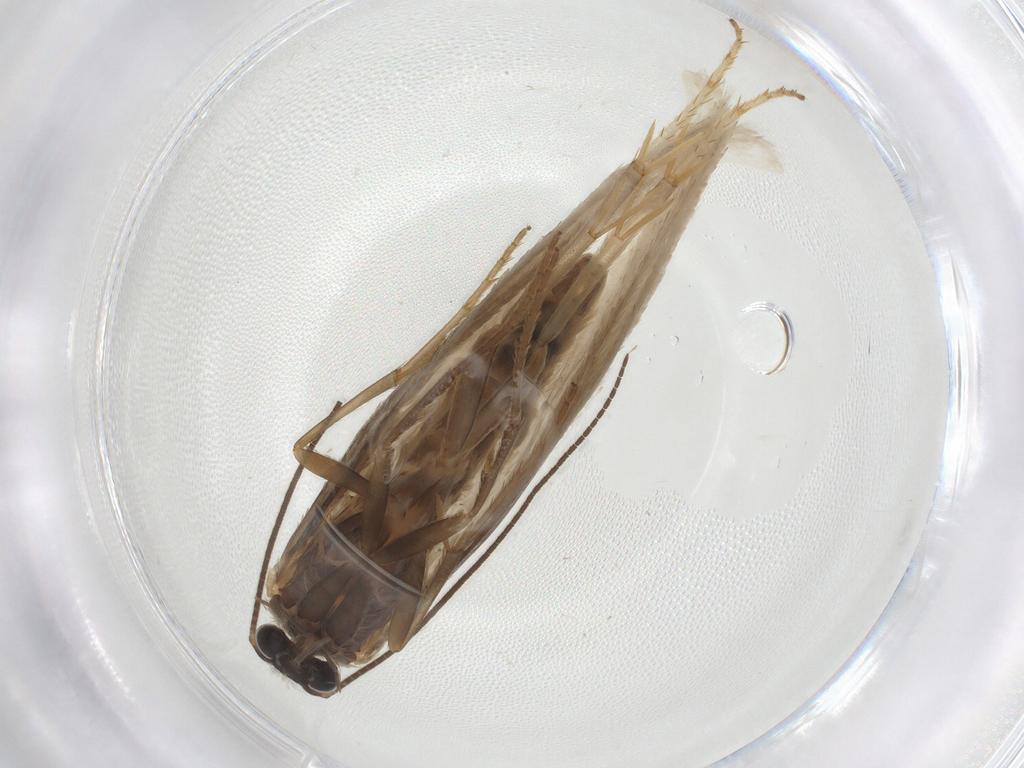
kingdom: Animalia
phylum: Arthropoda
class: Insecta
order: Lepidoptera
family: Tridentaformidae
